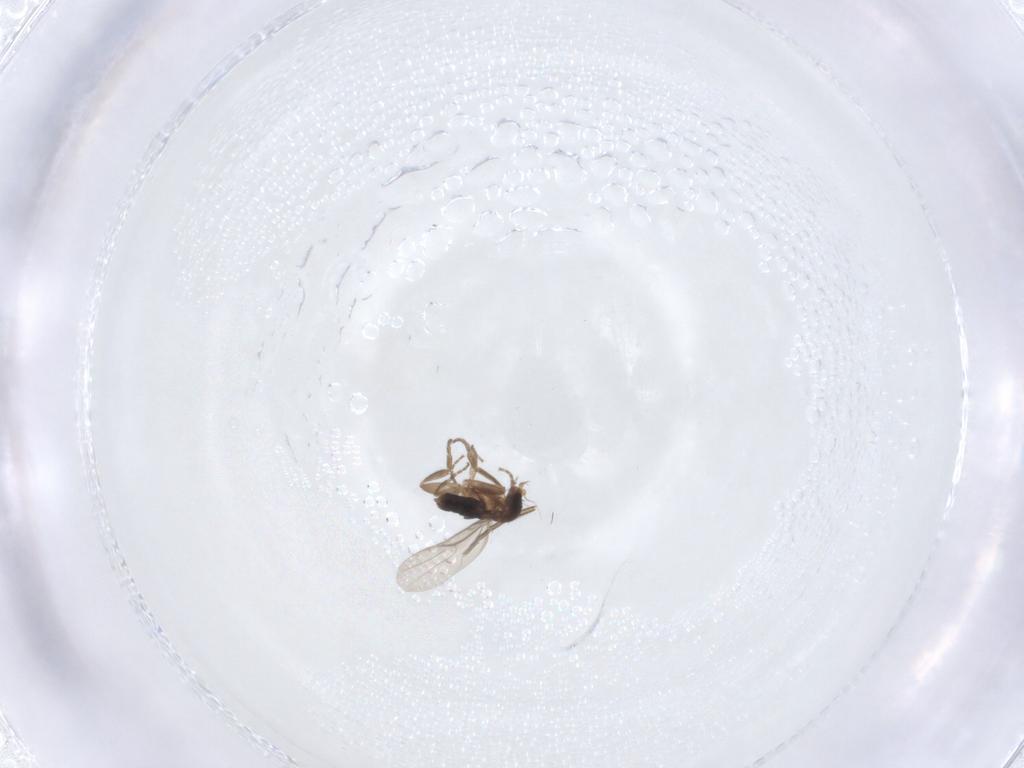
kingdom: Animalia
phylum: Arthropoda
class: Insecta
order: Diptera
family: Phoridae
